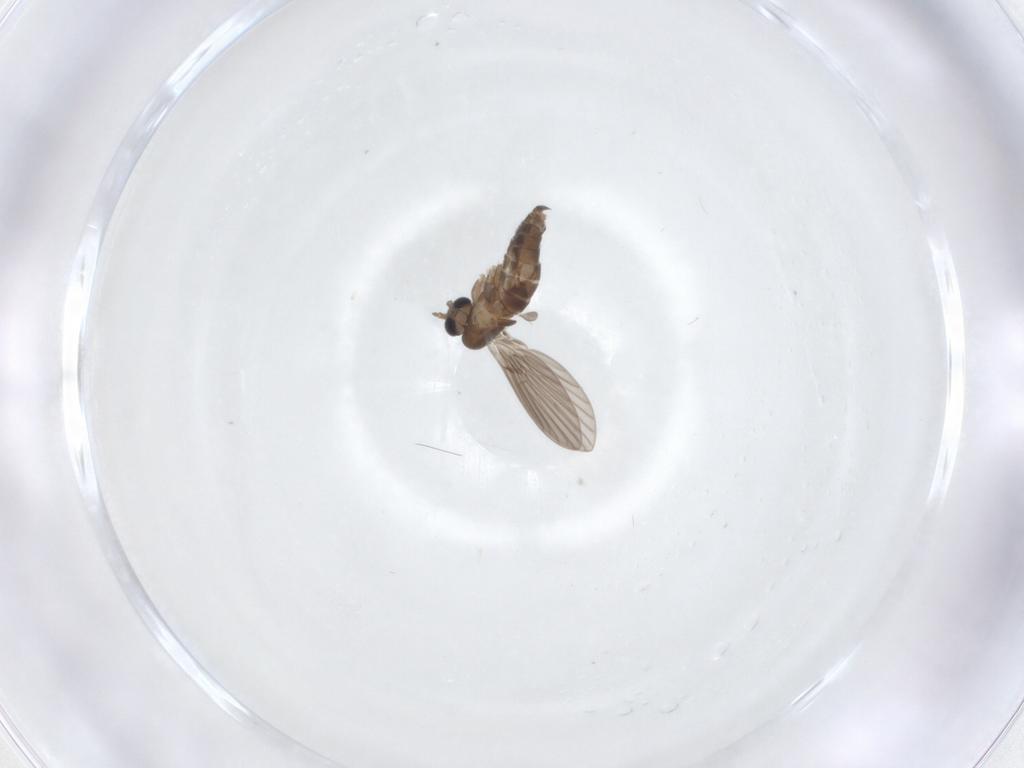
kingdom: Animalia
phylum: Arthropoda
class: Insecta
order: Diptera
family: Cecidomyiidae
